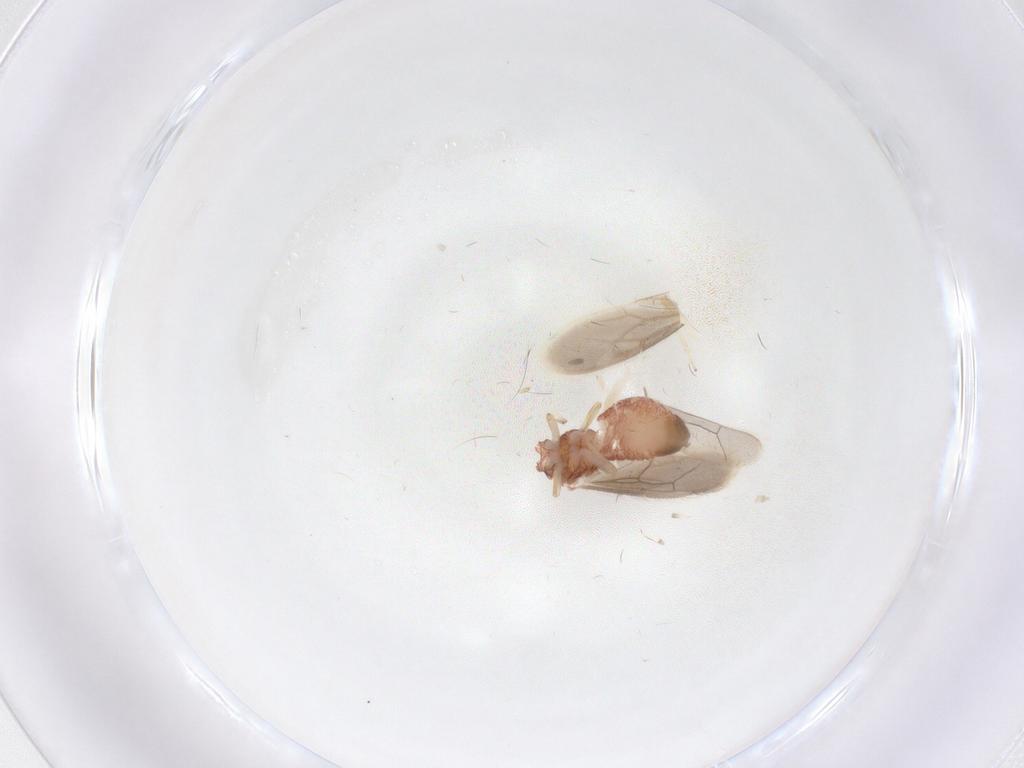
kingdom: Animalia
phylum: Arthropoda
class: Insecta
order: Psocodea
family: Archipsocidae
